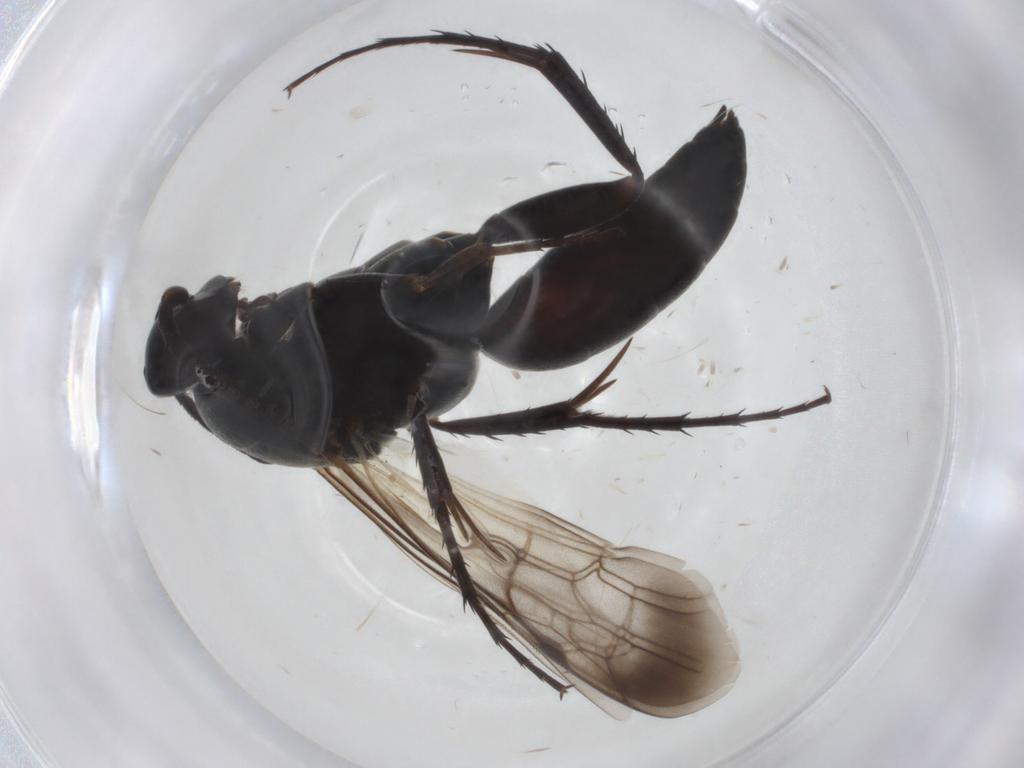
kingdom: Animalia
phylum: Arthropoda
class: Insecta
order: Hymenoptera
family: Pompilidae
